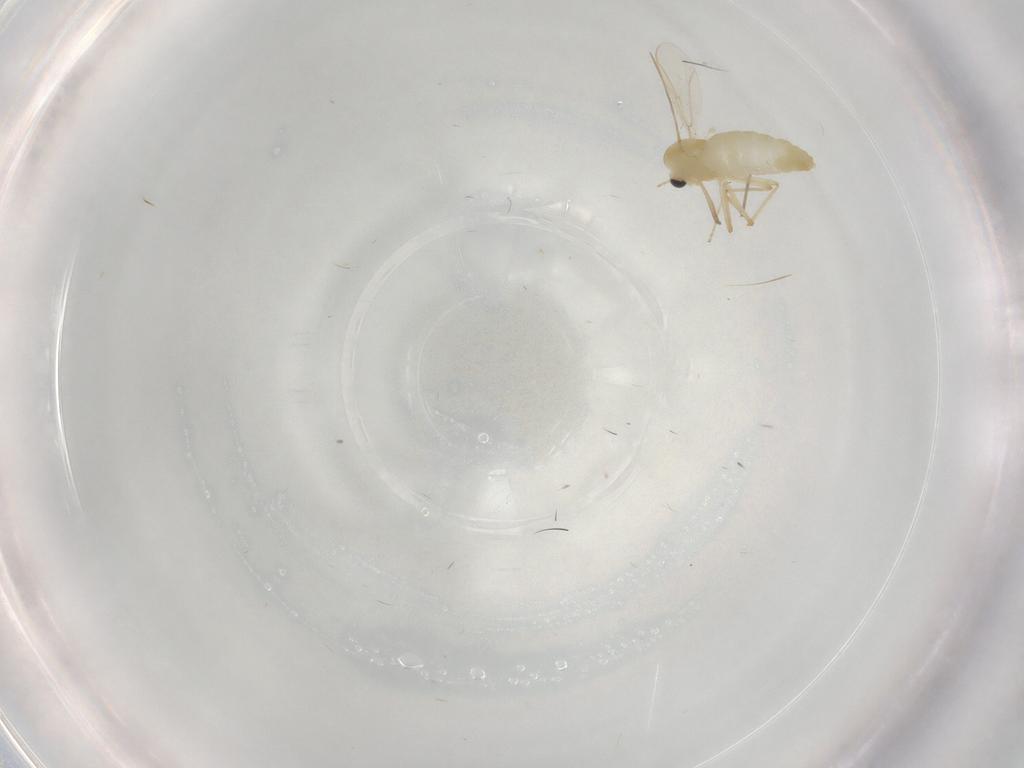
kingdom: Animalia
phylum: Arthropoda
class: Insecta
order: Diptera
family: Chironomidae
